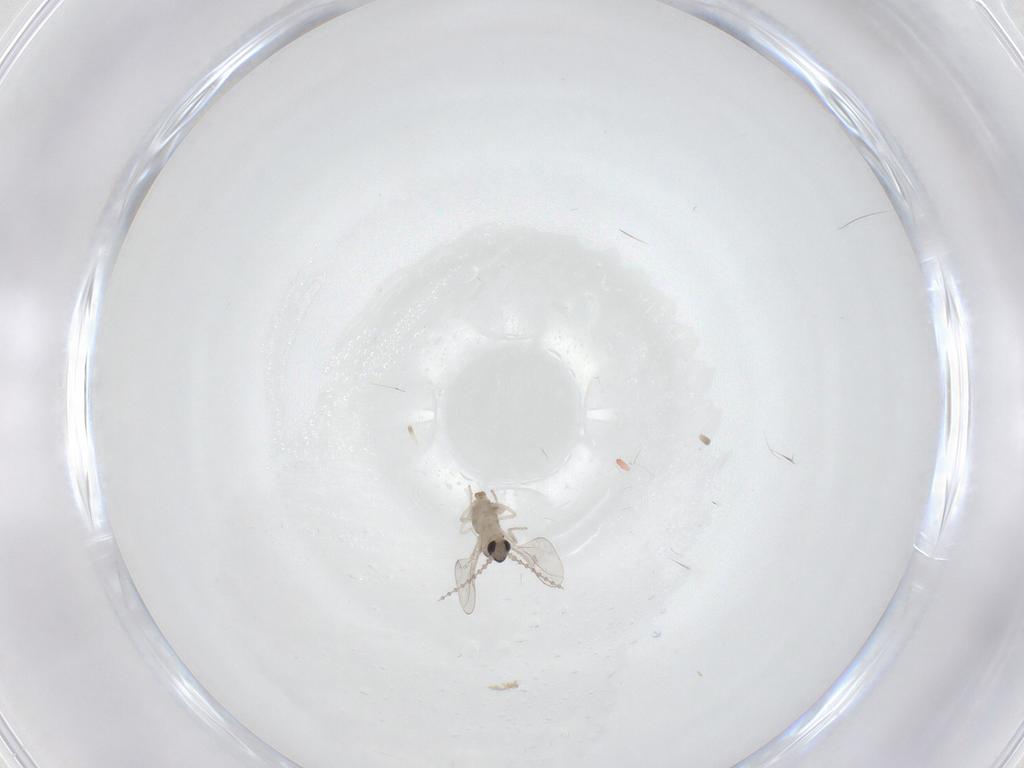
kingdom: Animalia
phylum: Arthropoda
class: Insecta
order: Diptera
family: Cecidomyiidae
